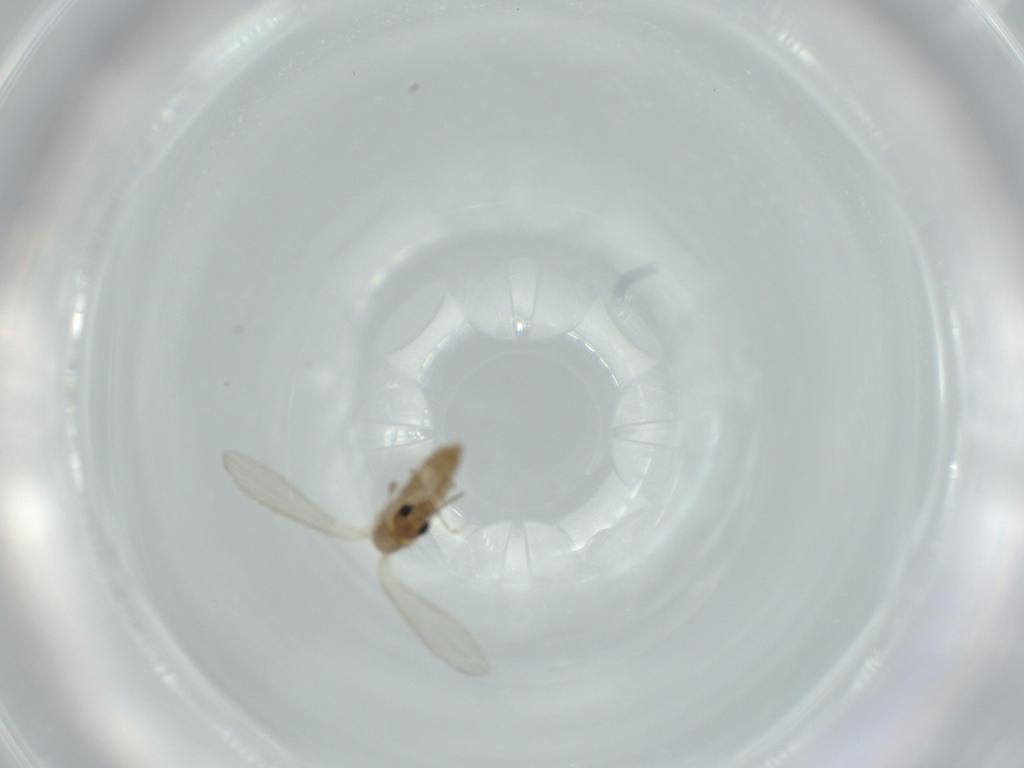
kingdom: Animalia
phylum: Arthropoda
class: Insecta
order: Diptera
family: Psychodidae
